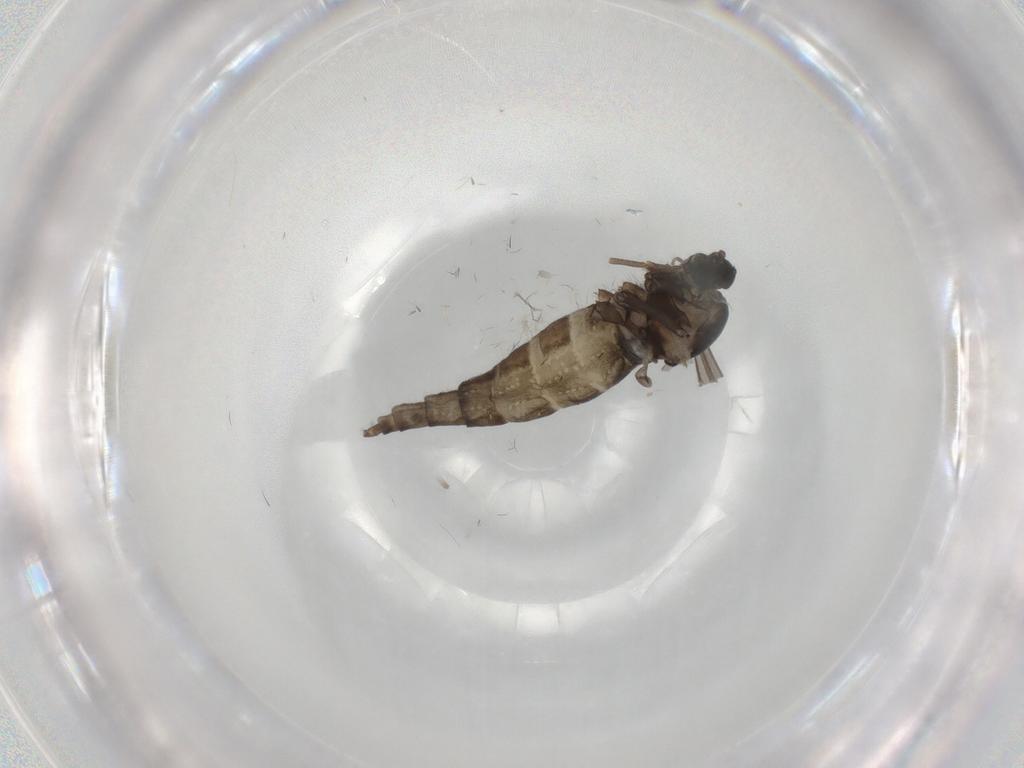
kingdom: Animalia
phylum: Arthropoda
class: Insecta
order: Diptera
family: Cecidomyiidae
